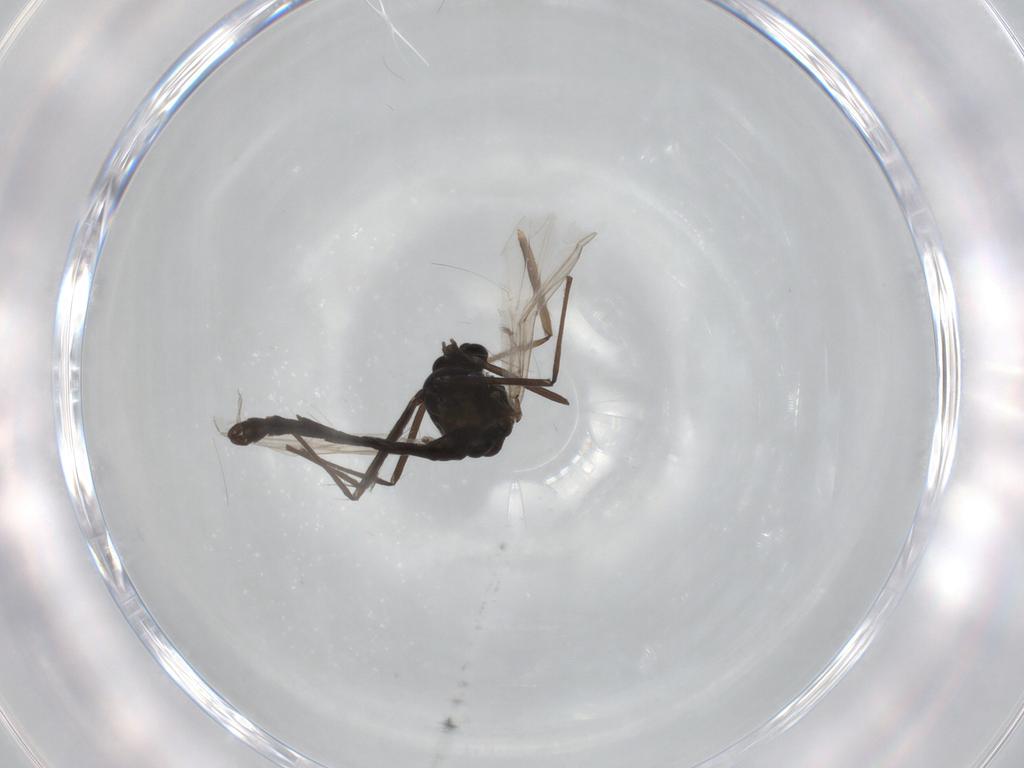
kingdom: Animalia
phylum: Arthropoda
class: Insecta
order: Diptera
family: Chironomidae
